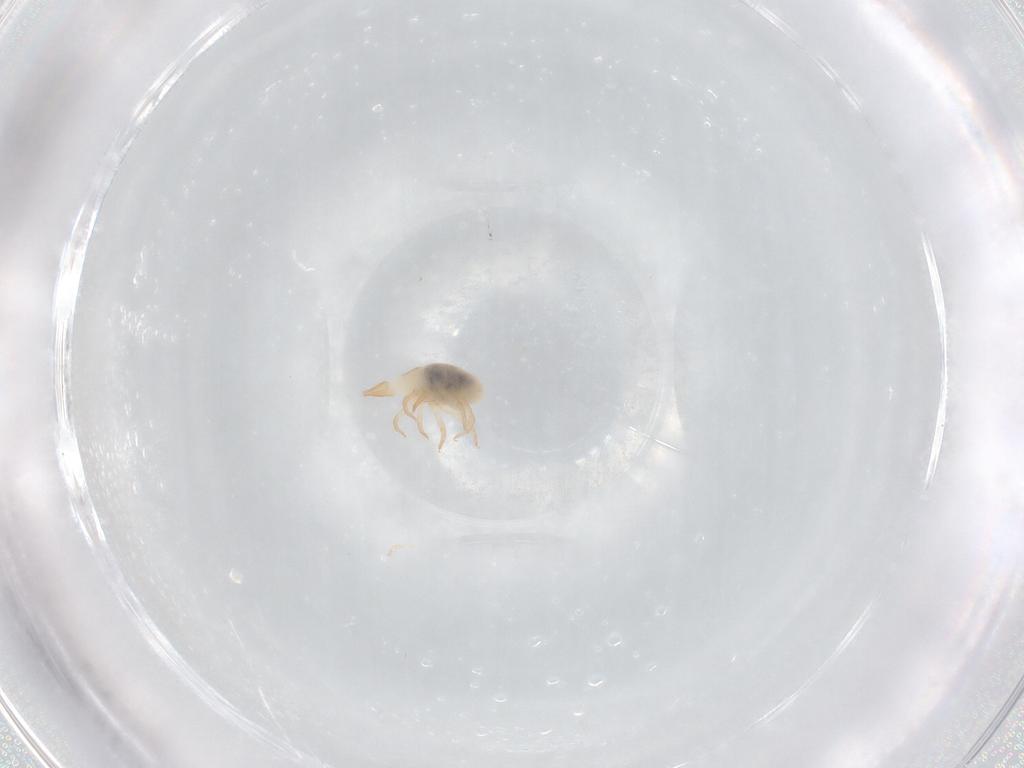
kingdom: Animalia
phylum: Arthropoda
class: Arachnida
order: Trombidiformes
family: Bdellidae
